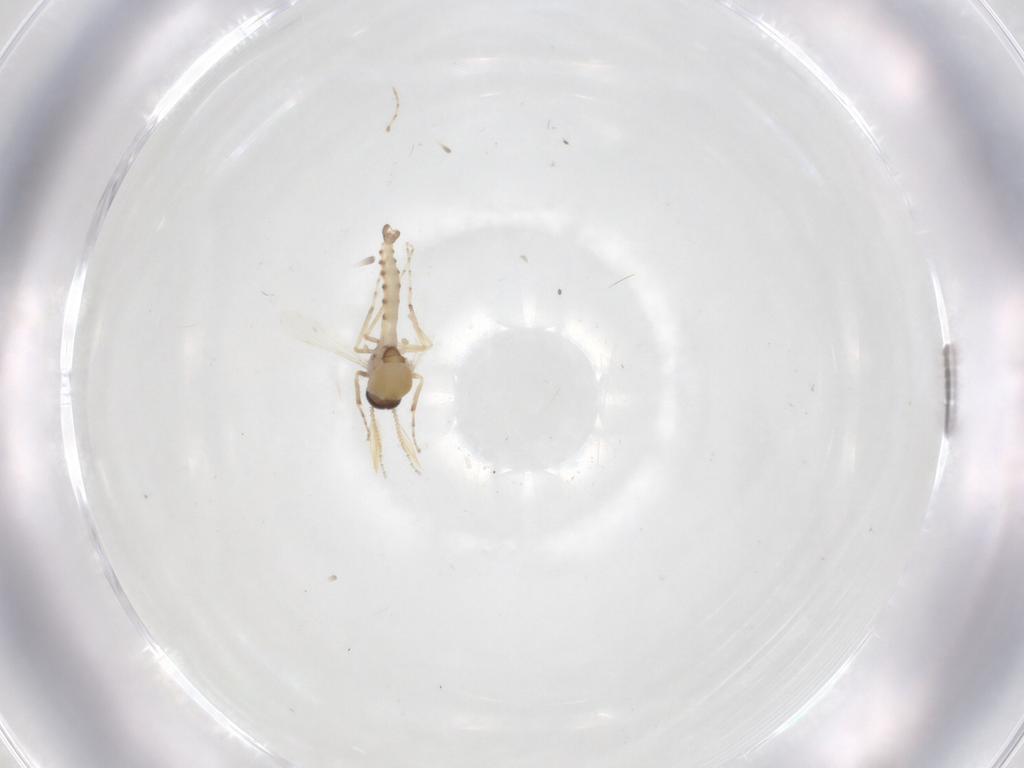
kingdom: Animalia
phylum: Arthropoda
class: Insecta
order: Diptera
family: Ceratopogonidae
